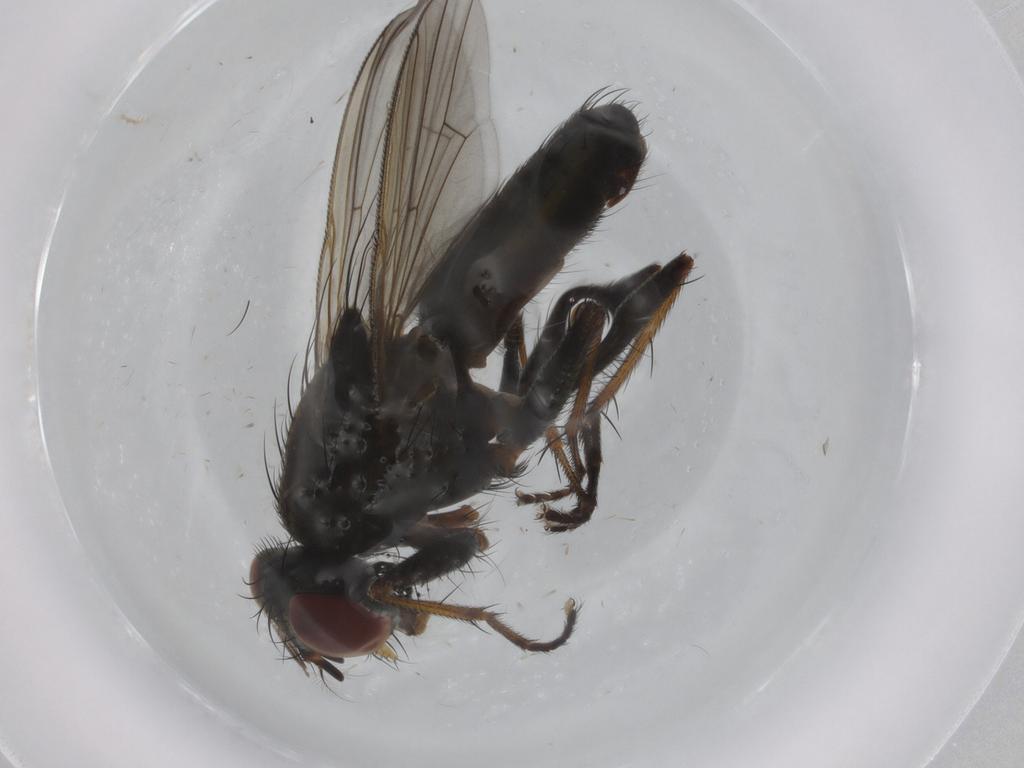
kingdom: Animalia
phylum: Arthropoda
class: Insecta
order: Diptera
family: Muscidae
